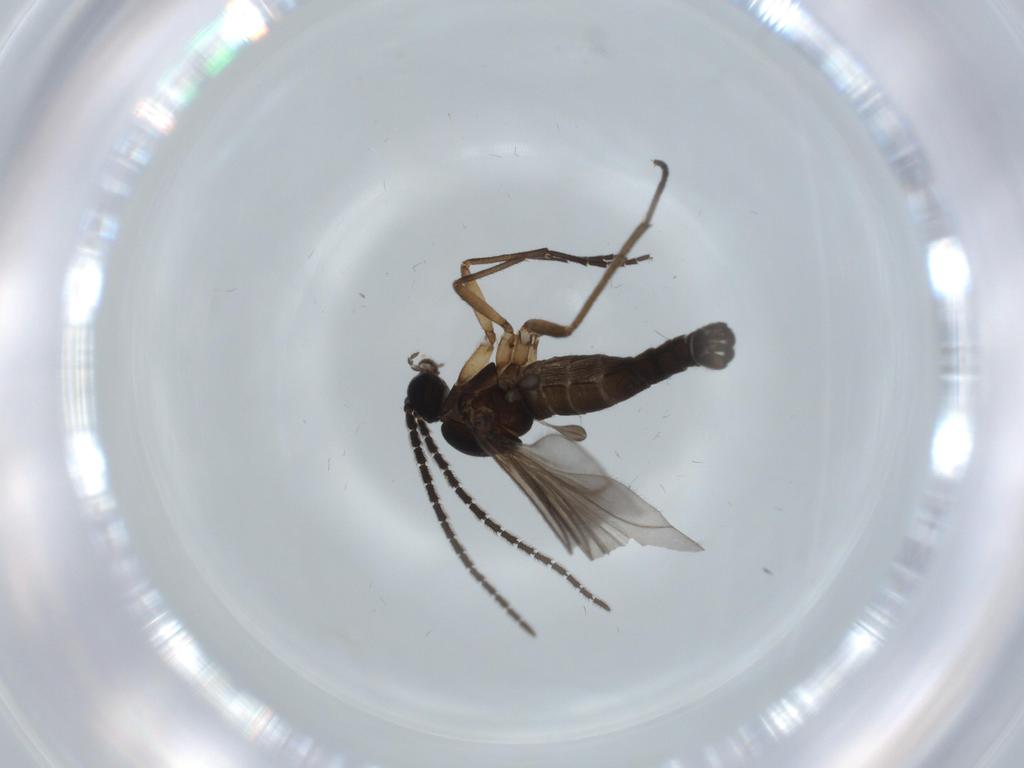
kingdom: Animalia
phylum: Arthropoda
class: Insecta
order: Diptera
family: Sciaridae
